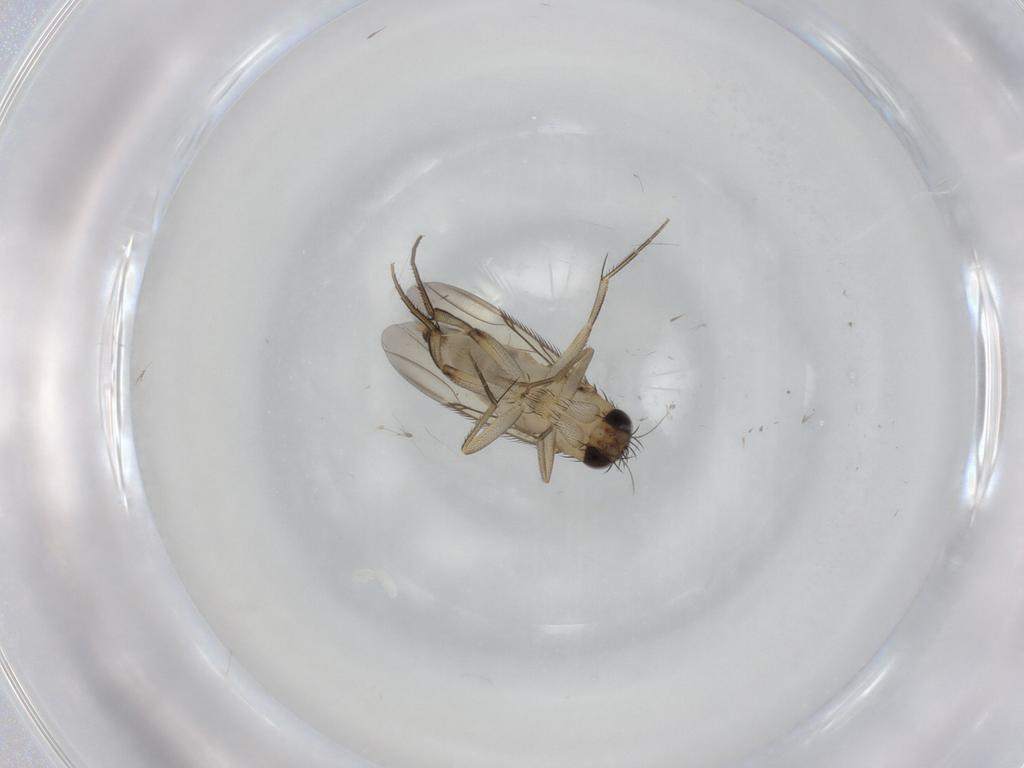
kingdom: Animalia
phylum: Arthropoda
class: Insecta
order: Diptera
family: Phoridae
